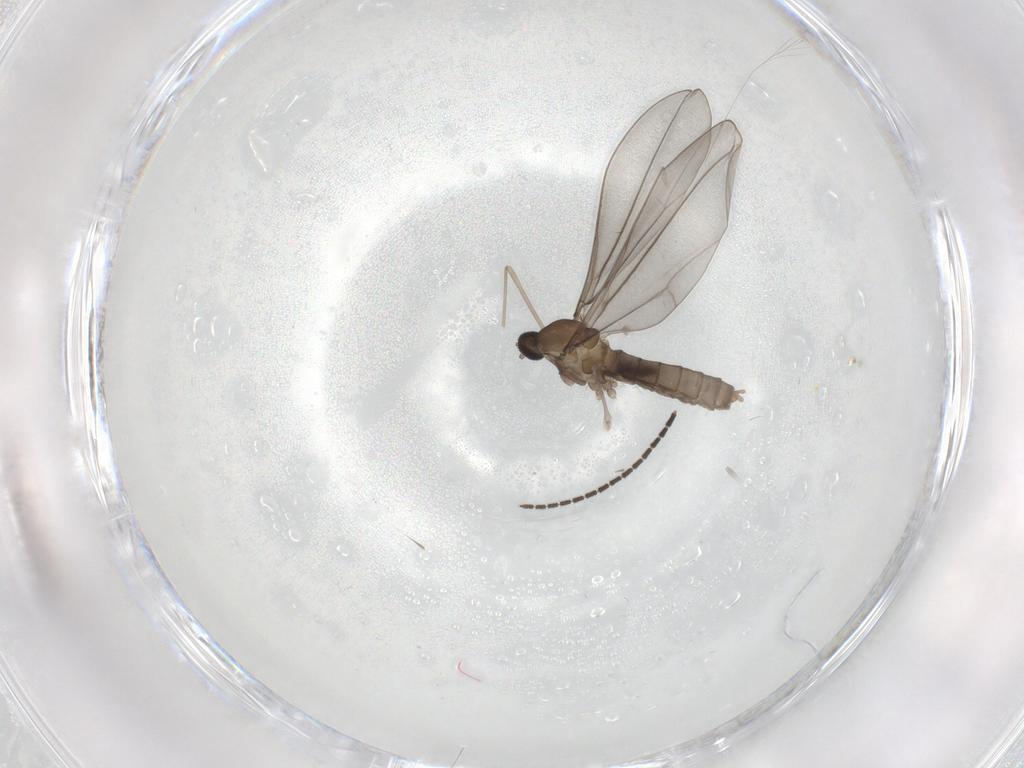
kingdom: Animalia
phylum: Arthropoda
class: Insecta
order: Diptera
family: Cecidomyiidae
